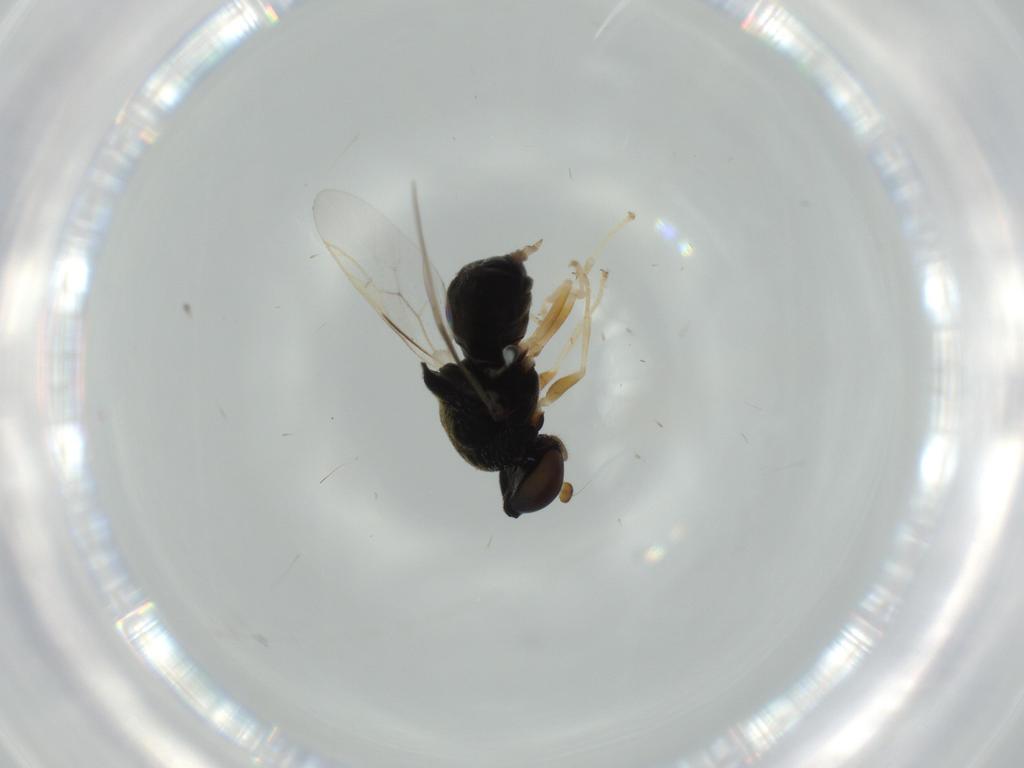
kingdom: Animalia
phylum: Arthropoda
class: Insecta
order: Diptera
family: Stratiomyidae
